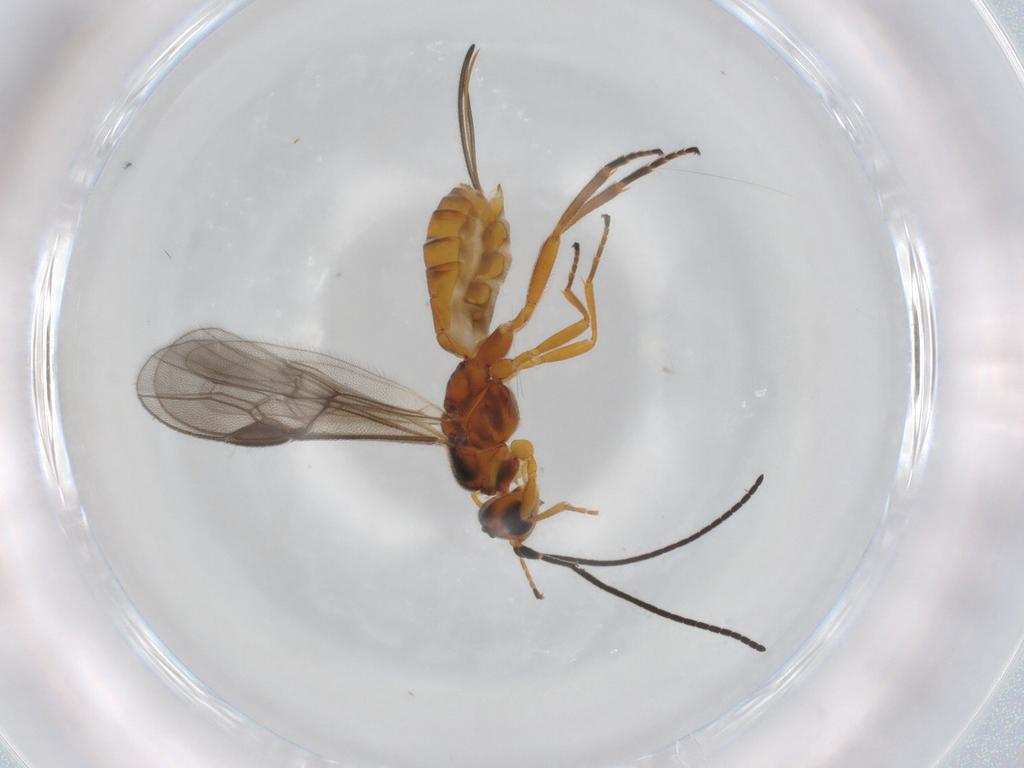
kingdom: Animalia
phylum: Arthropoda
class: Insecta
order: Hymenoptera
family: Braconidae
